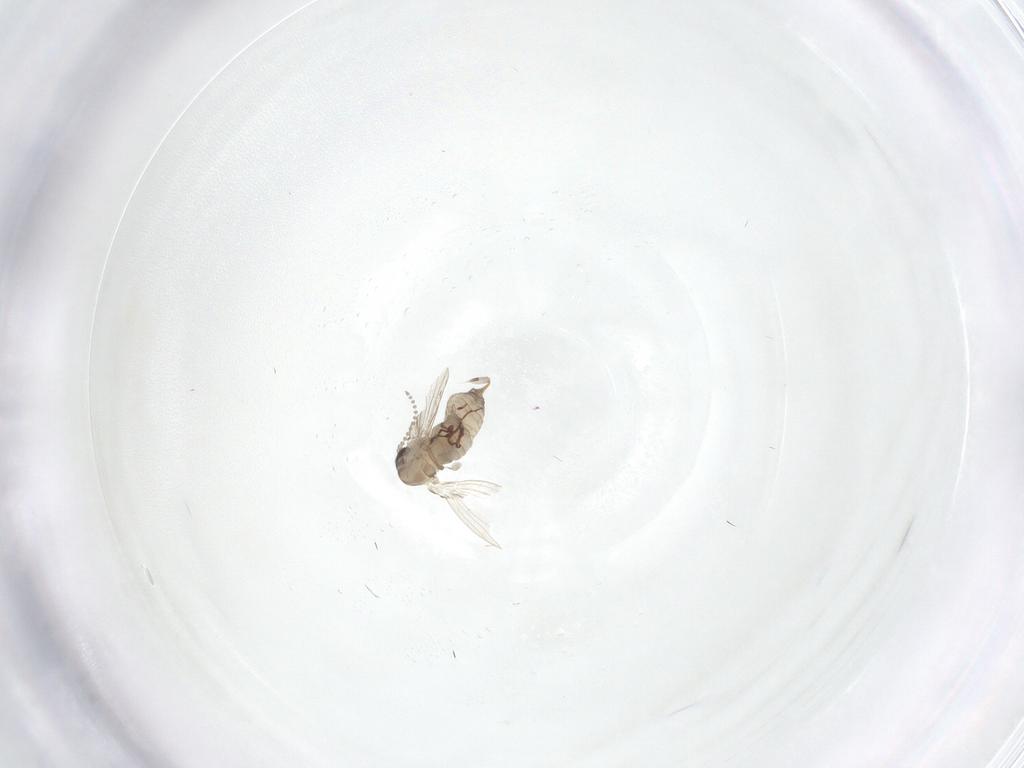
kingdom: Animalia
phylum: Arthropoda
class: Insecta
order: Diptera
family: Psychodidae
